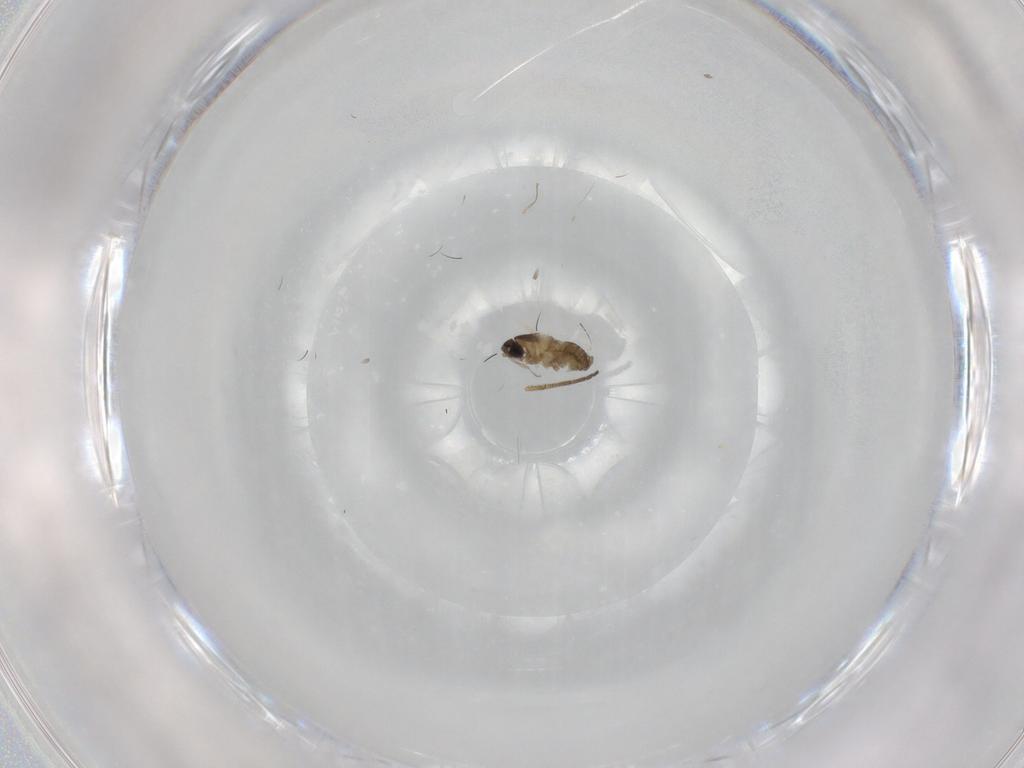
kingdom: Animalia
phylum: Arthropoda
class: Insecta
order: Diptera
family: Cecidomyiidae
